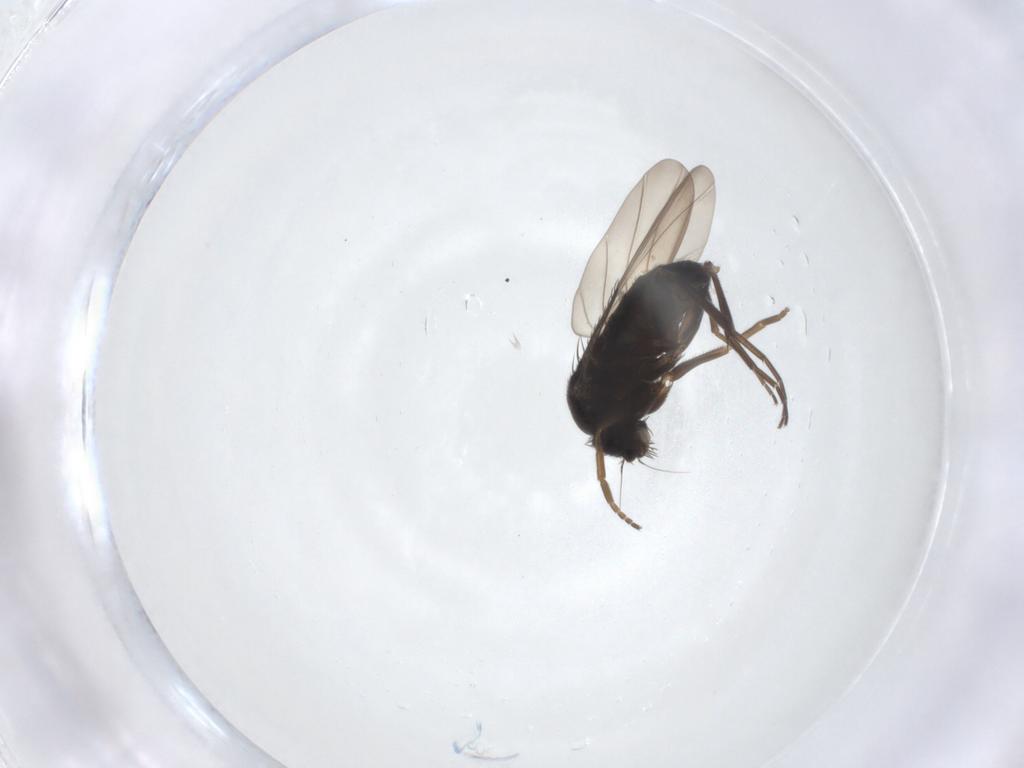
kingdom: Animalia
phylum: Arthropoda
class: Insecta
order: Diptera
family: Phoridae
